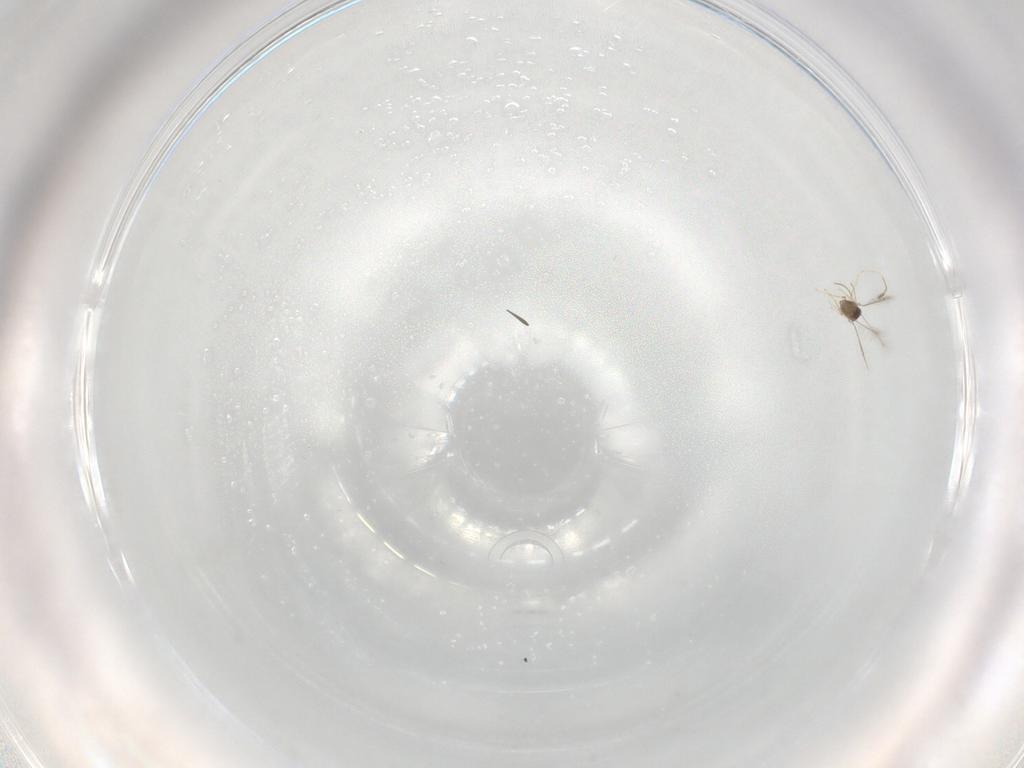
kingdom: Animalia
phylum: Arthropoda
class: Insecta
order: Hymenoptera
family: Mymaridae
